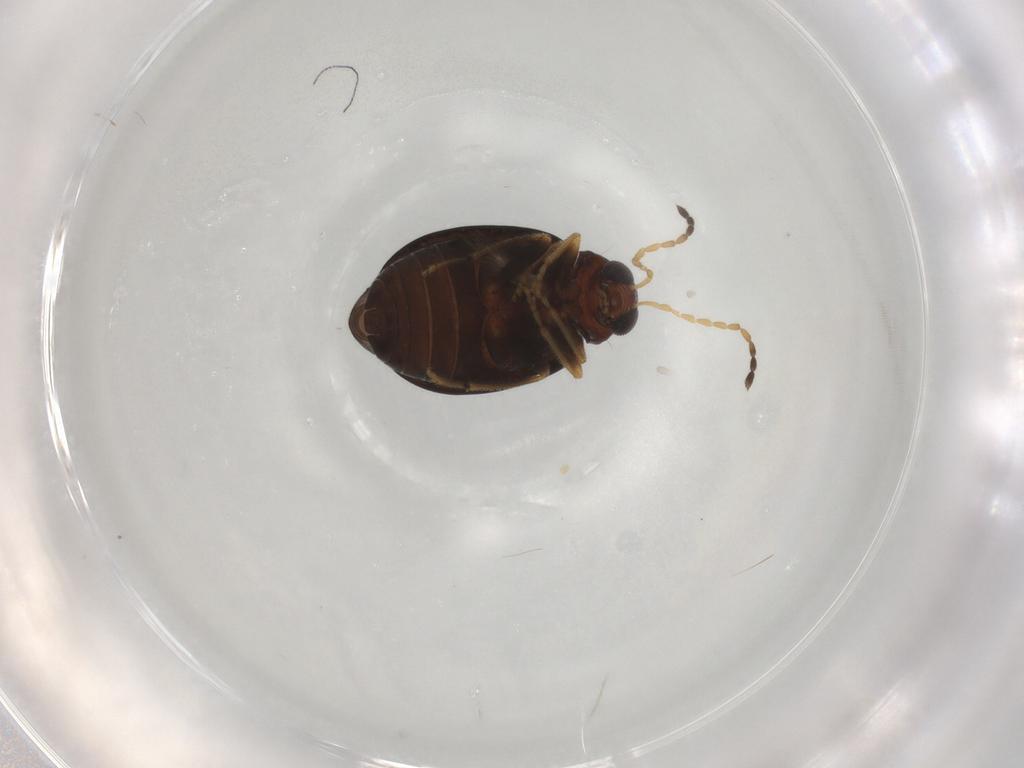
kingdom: Animalia
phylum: Arthropoda
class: Insecta
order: Coleoptera
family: Chrysomelidae
